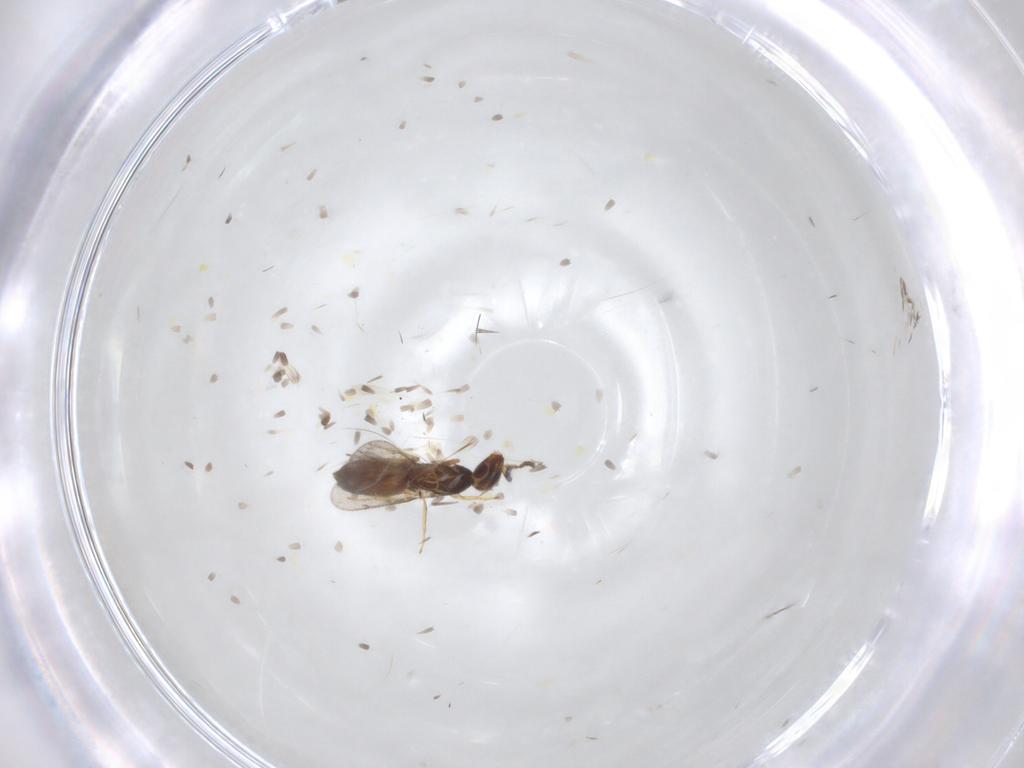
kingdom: Animalia
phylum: Arthropoda
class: Insecta
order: Hymenoptera
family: Eulophidae
